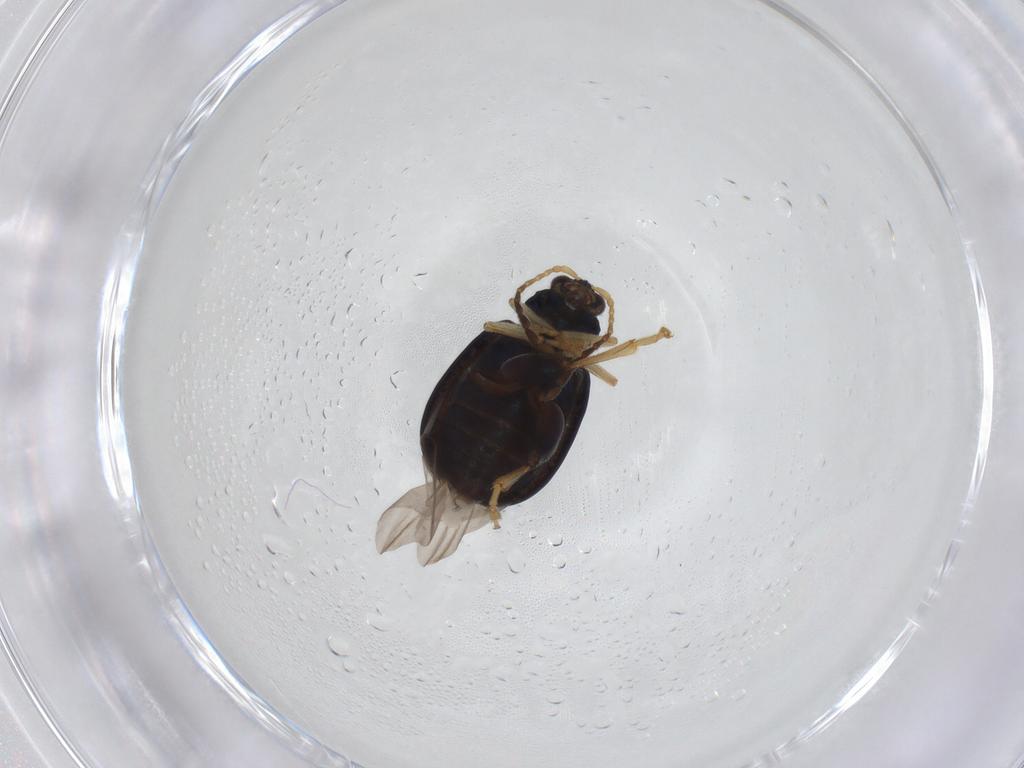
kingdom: Animalia
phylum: Arthropoda
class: Insecta
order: Coleoptera
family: Chrysomelidae
